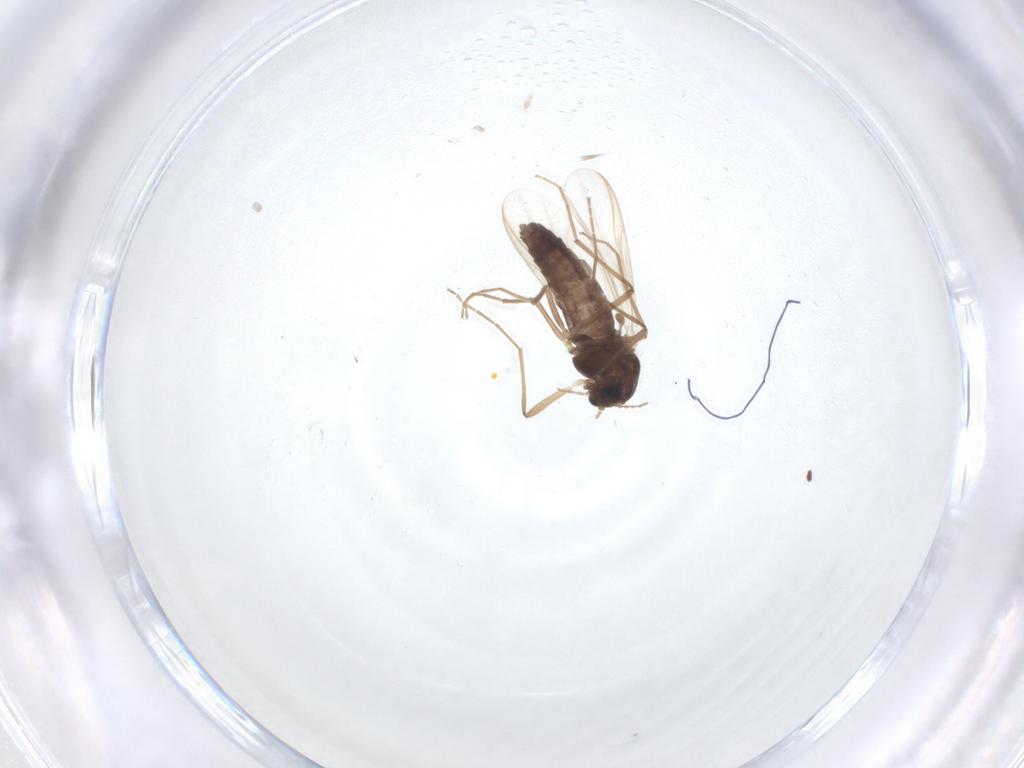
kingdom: Animalia
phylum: Arthropoda
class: Insecta
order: Diptera
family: Chironomidae
